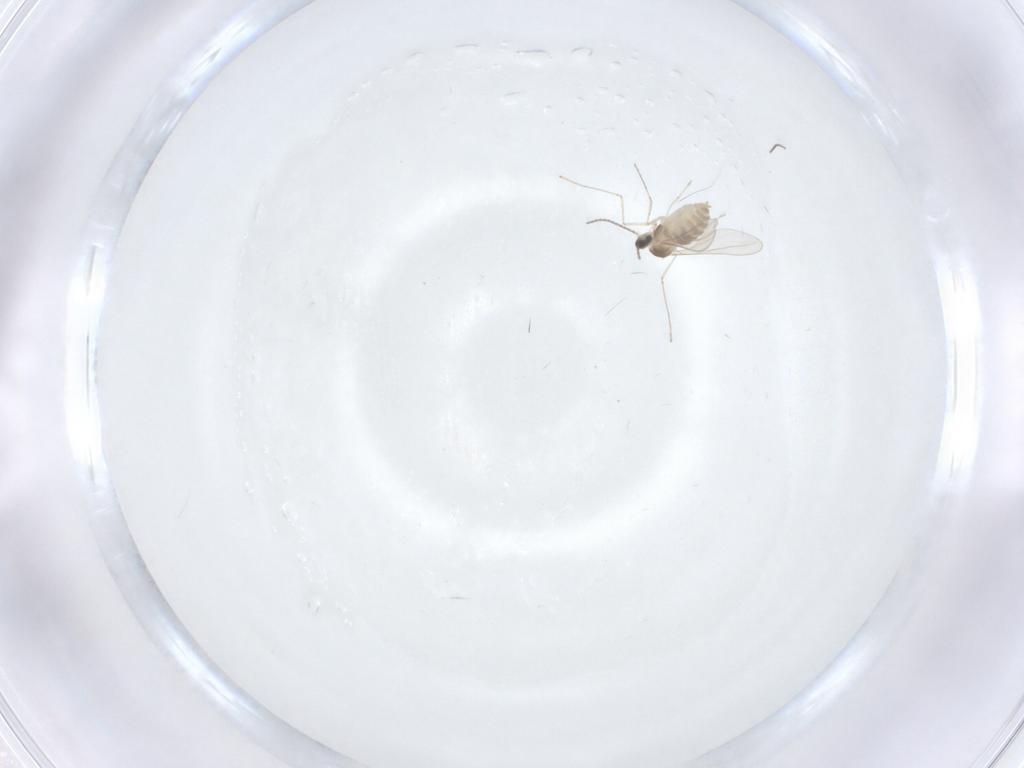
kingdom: Animalia
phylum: Arthropoda
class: Insecta
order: Diptera
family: Cecidomyiidae
